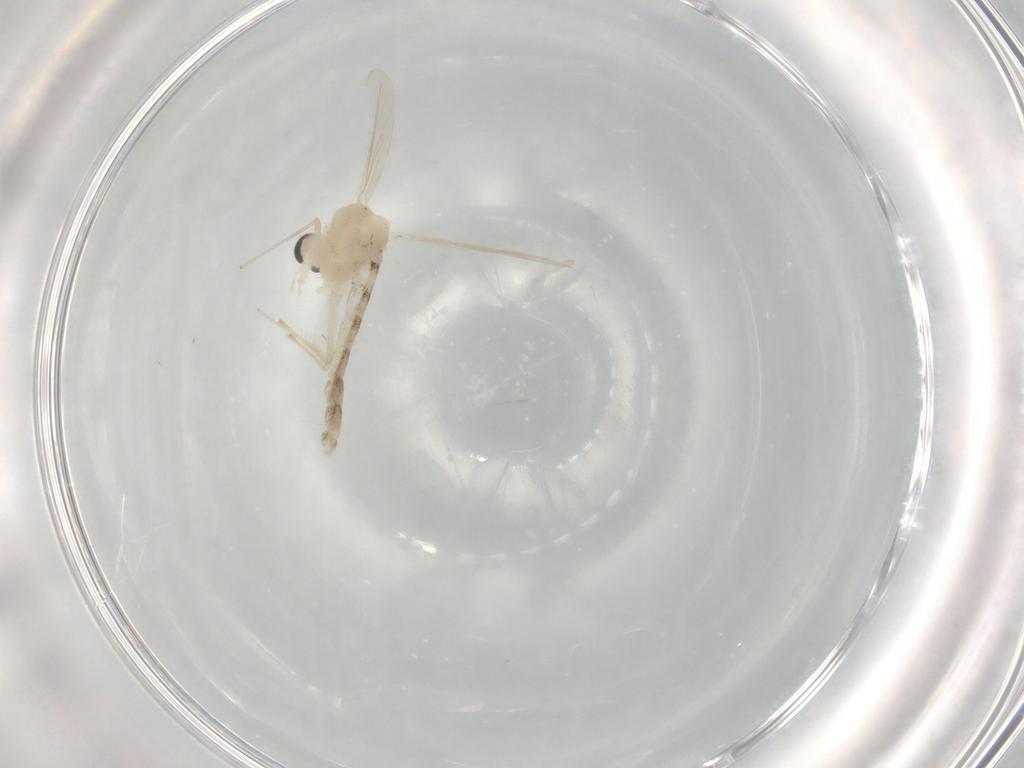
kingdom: Animalia
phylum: Arthropoda
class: Insecta
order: Diptera
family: Chironomidae
